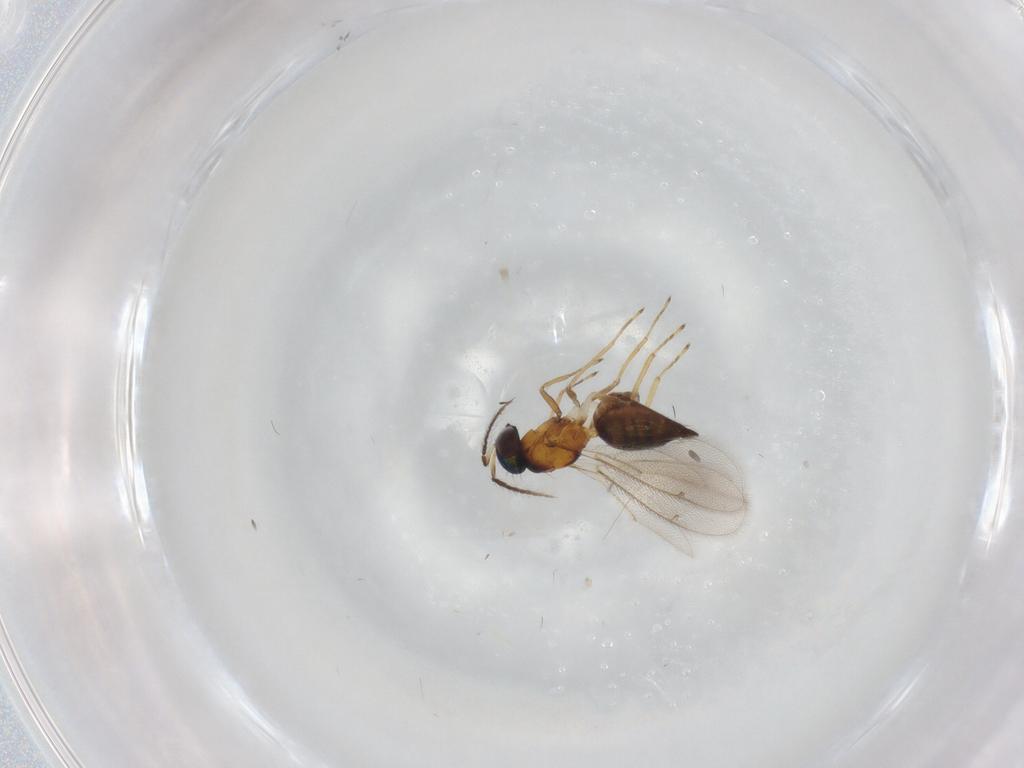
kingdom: Animalia
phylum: Arthropoda
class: Insecta
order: Hymenoptera
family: Eulophidae
